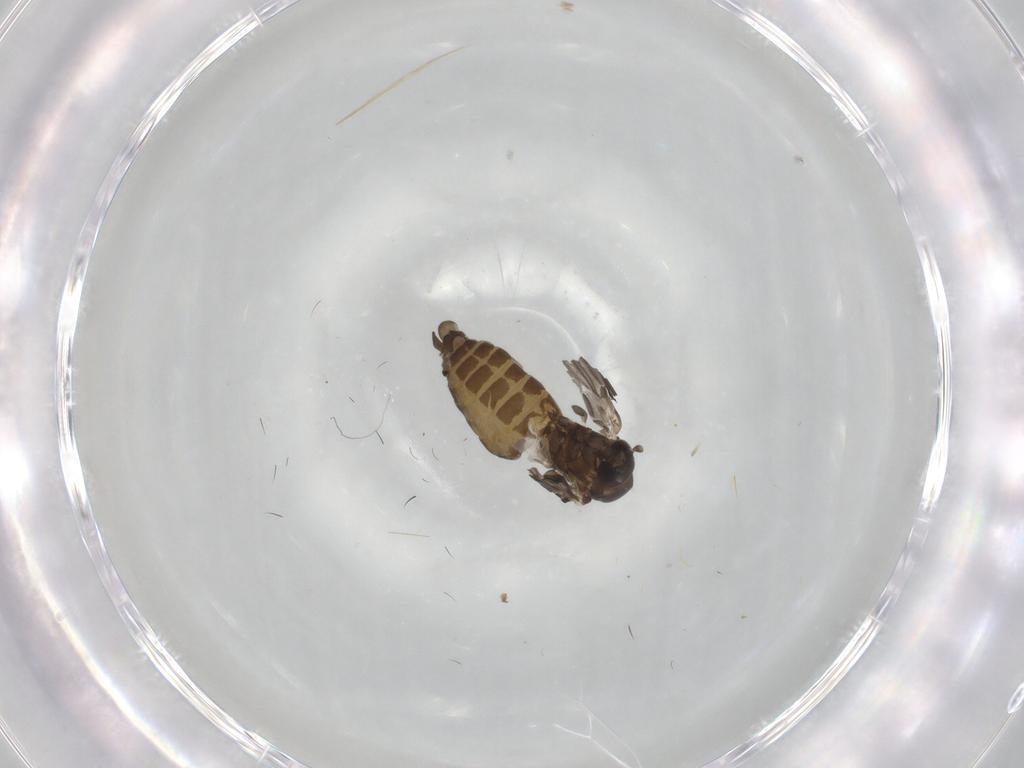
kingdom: Animalia
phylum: Arthropoda
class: Insecta
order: Diptera
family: Psychodidae
